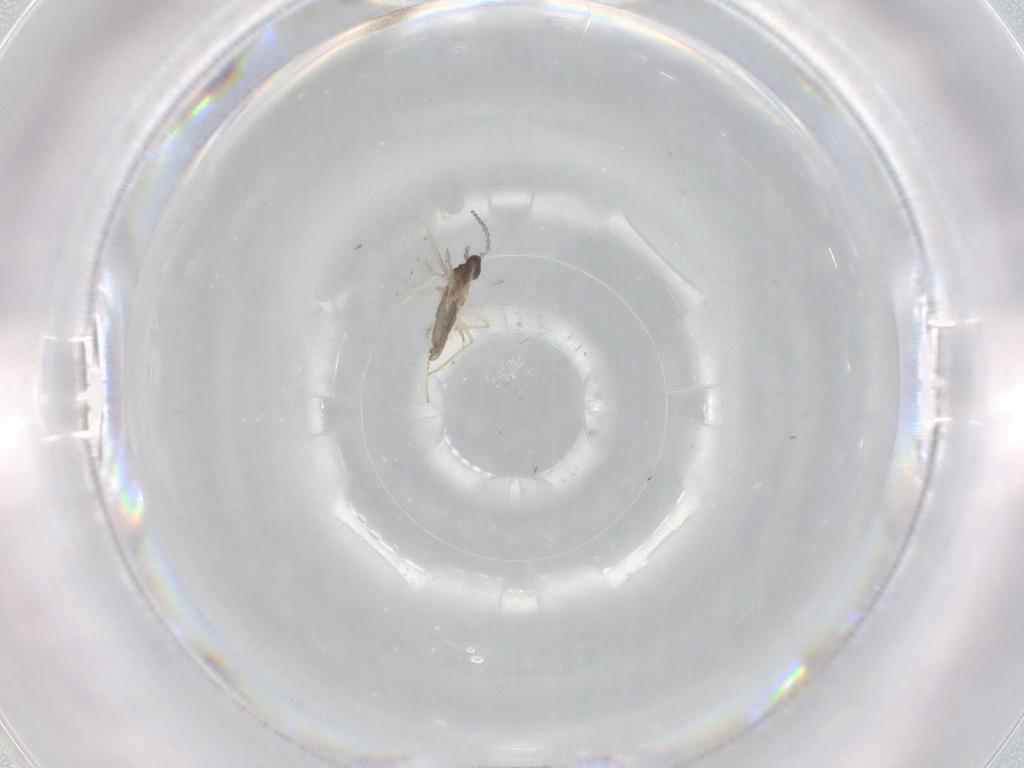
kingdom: Animalia
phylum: Arthropoda
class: Insecta
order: Diptera
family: Cecidomyiidae
